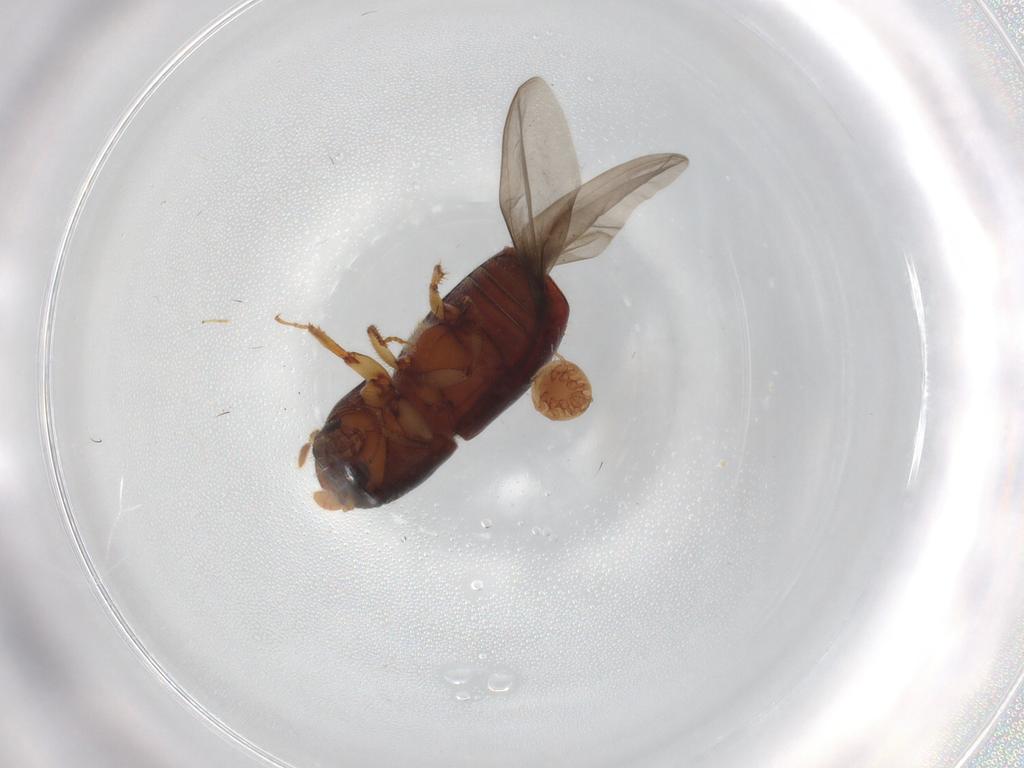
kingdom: Animalia
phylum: Arthropoda
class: Insecta
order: Coleoptera
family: Curculionidae
